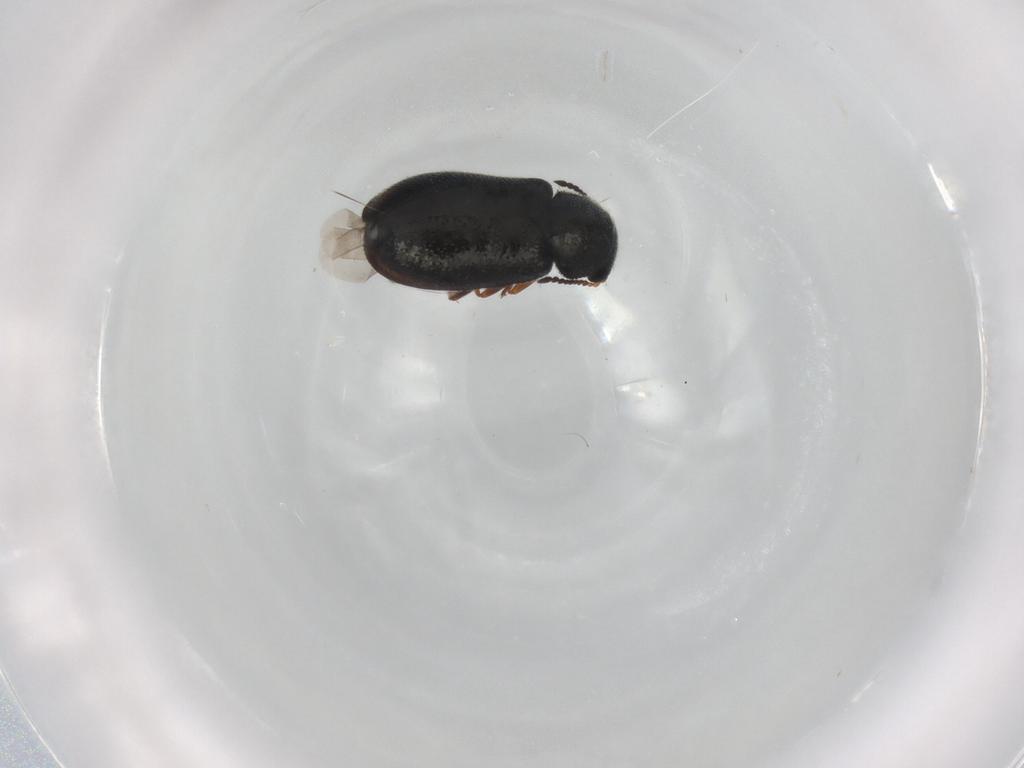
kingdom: Animalia
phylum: Arthropoda
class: Insecta
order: Coleoptera
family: Melyridae
